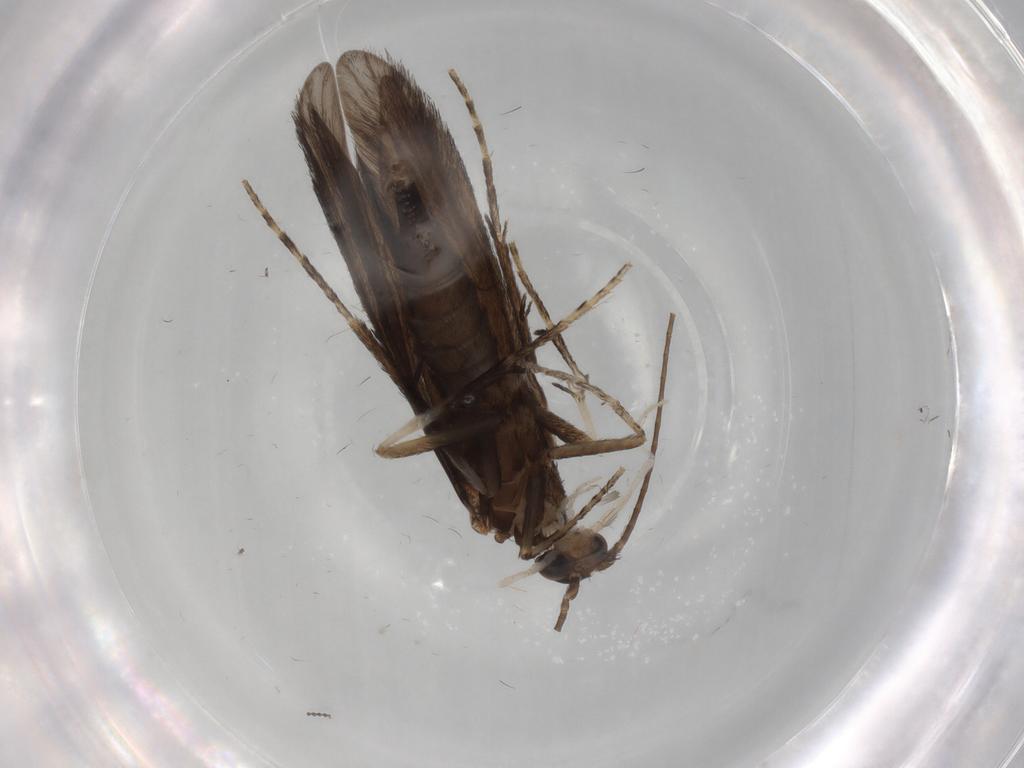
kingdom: Animalia
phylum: Arthropoda
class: Insecta
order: Trichoptera
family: Xiphocentronidae
